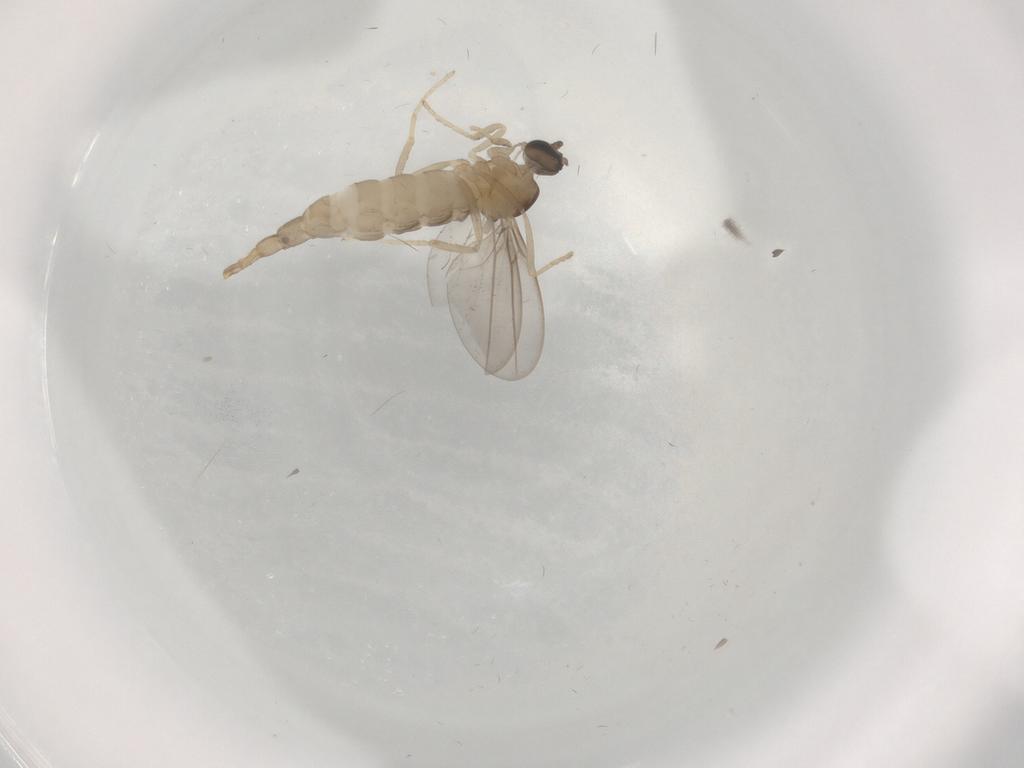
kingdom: Animalia
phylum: Arthropoda
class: Insecta
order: Diptera
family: Cecidomyiidae
